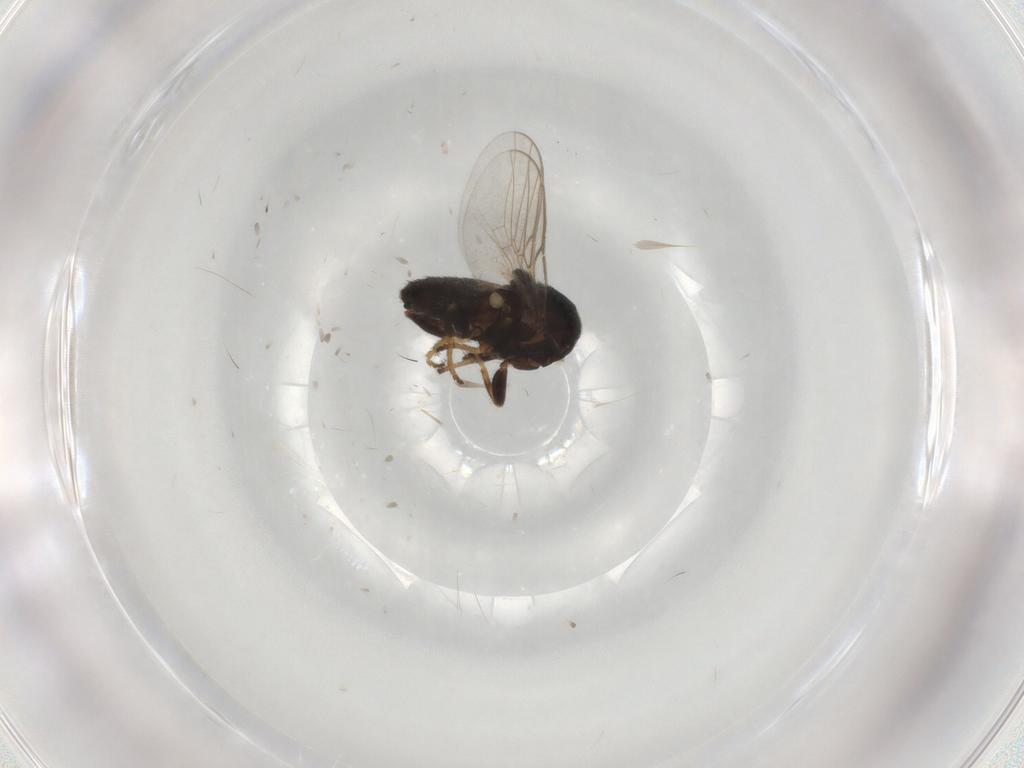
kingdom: Animalia
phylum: Arthropoda
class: Insecta
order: Diptera
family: Chloropidae
